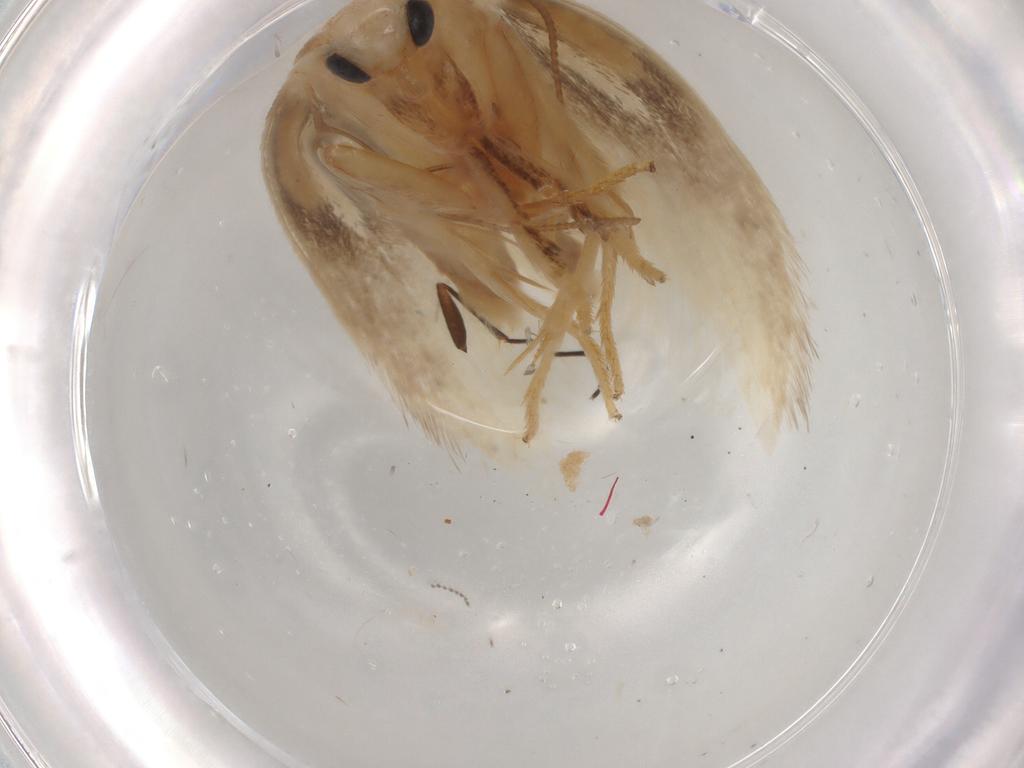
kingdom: Animalia
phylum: Arthropoda
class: Insecta
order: Lepidoptera
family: Geometridae
